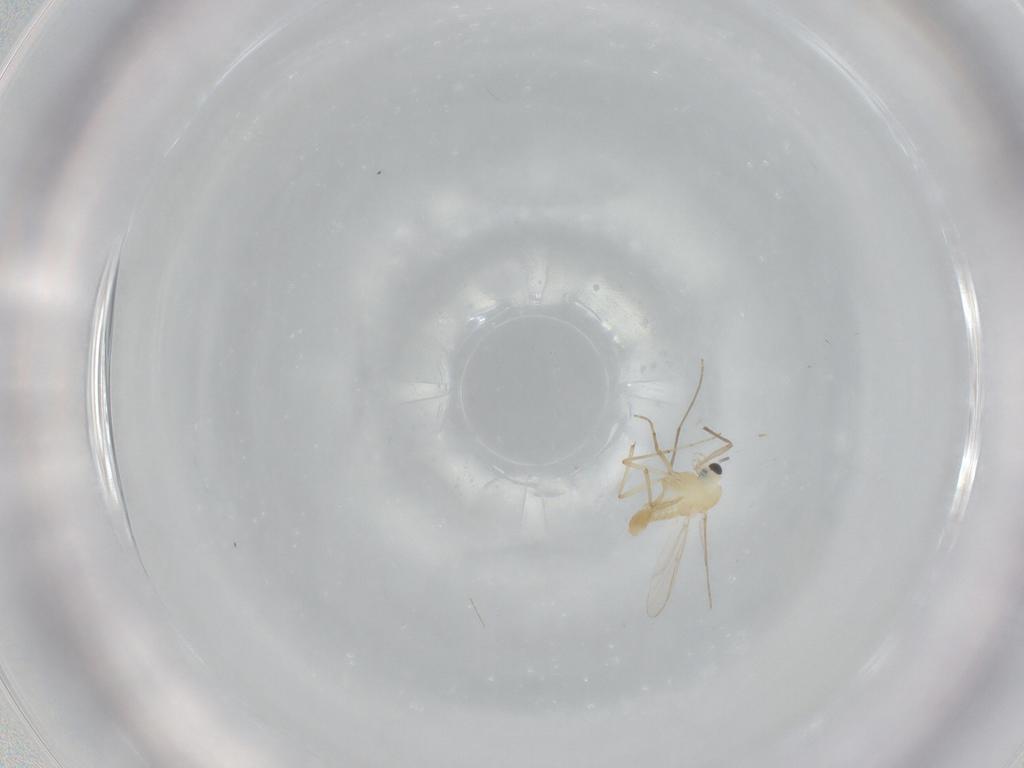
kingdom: Animalia
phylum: Arthropoda
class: Insecta
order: Diptera
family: Chironomidae
